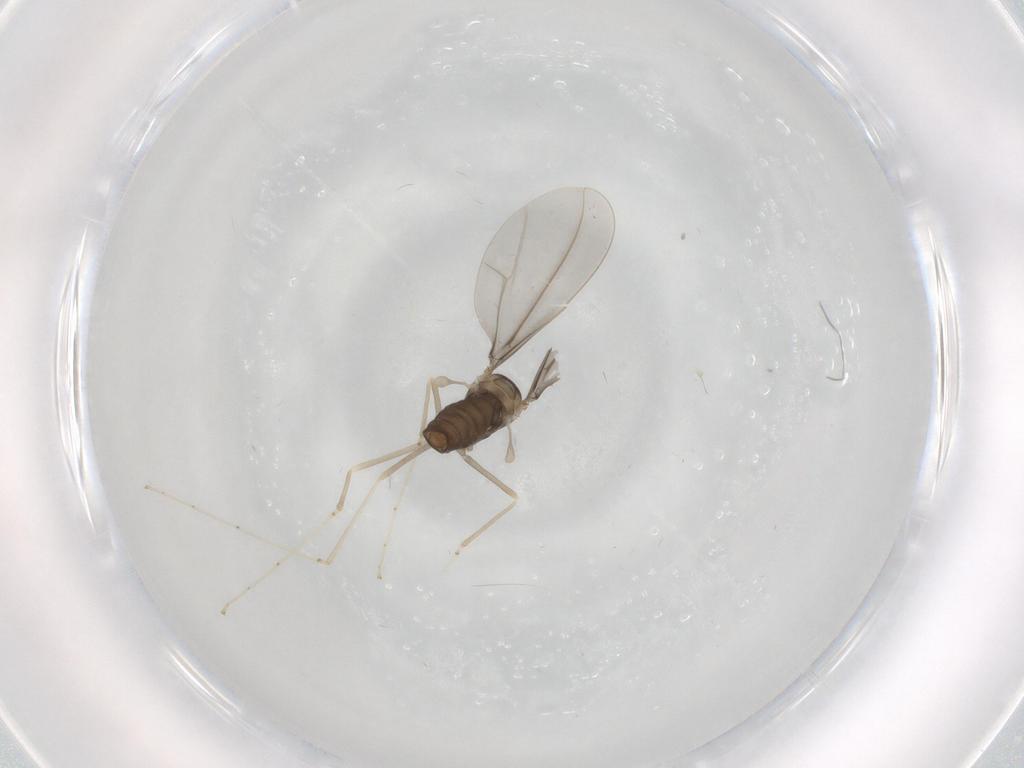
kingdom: Animalia
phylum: Arthropoda
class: Insecta
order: Diptera
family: Cecidomyiidae
